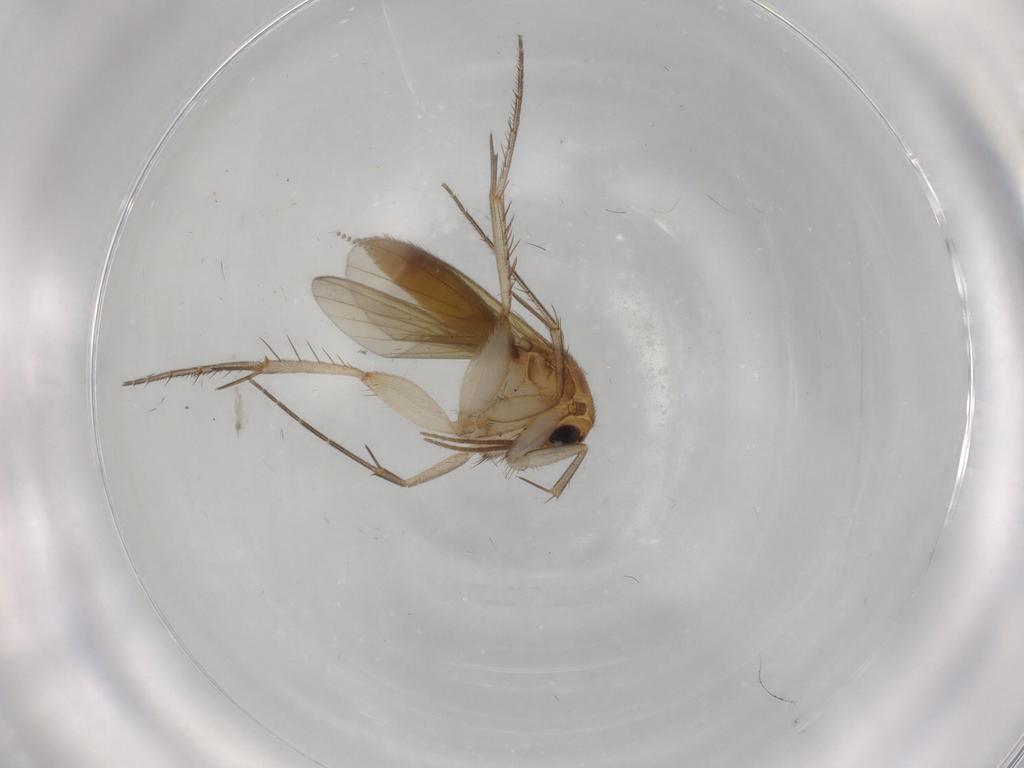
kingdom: Animalia
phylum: Arthropoda
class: Insecta
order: Diptera
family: Mycetophilidae
